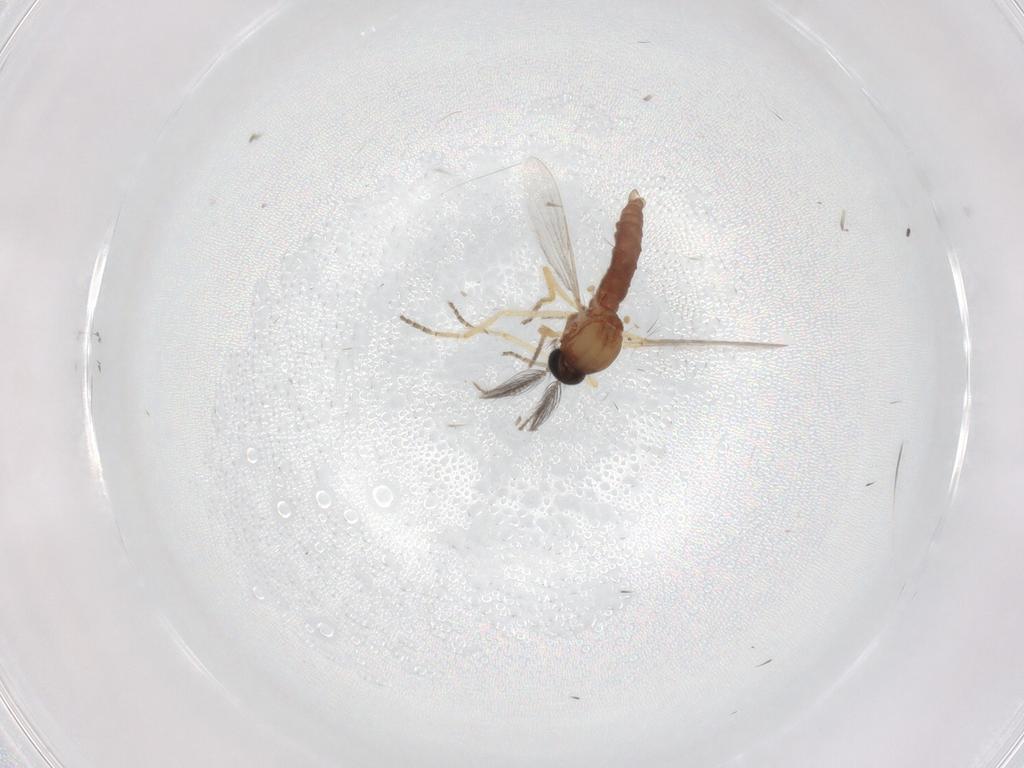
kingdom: Animalia
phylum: Arthropoda
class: Insecta
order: Diptera
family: Ceratopogonidae
